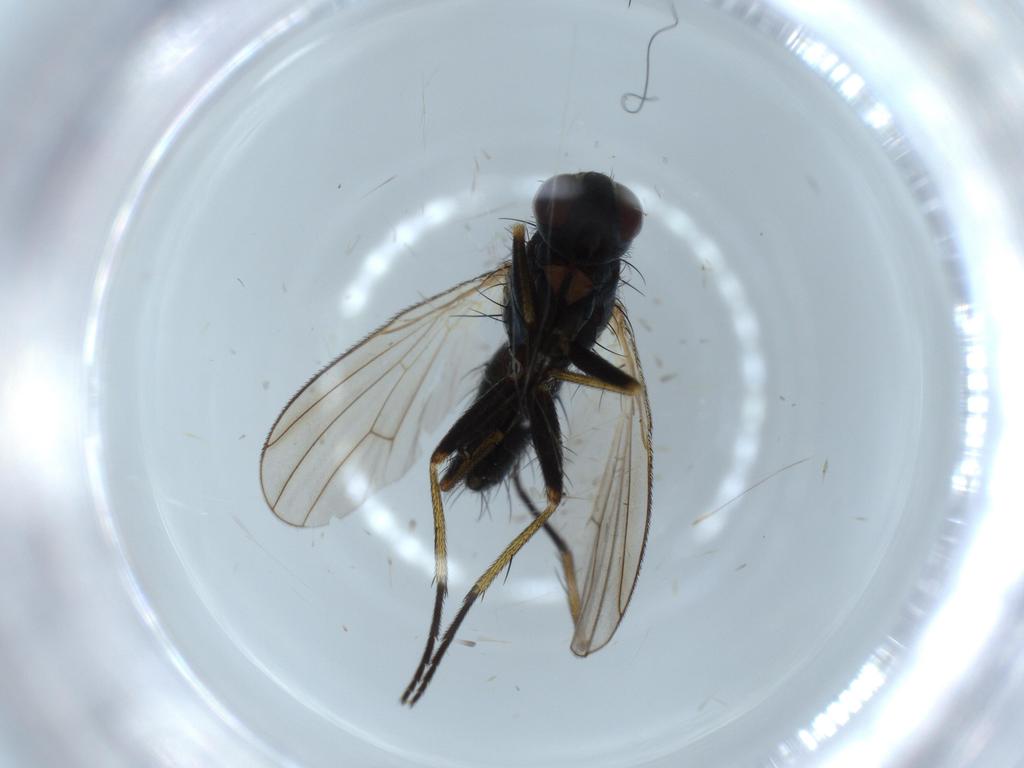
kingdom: Animalia
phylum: Arthropoda
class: Insecta
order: Diptera
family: Muscidae
